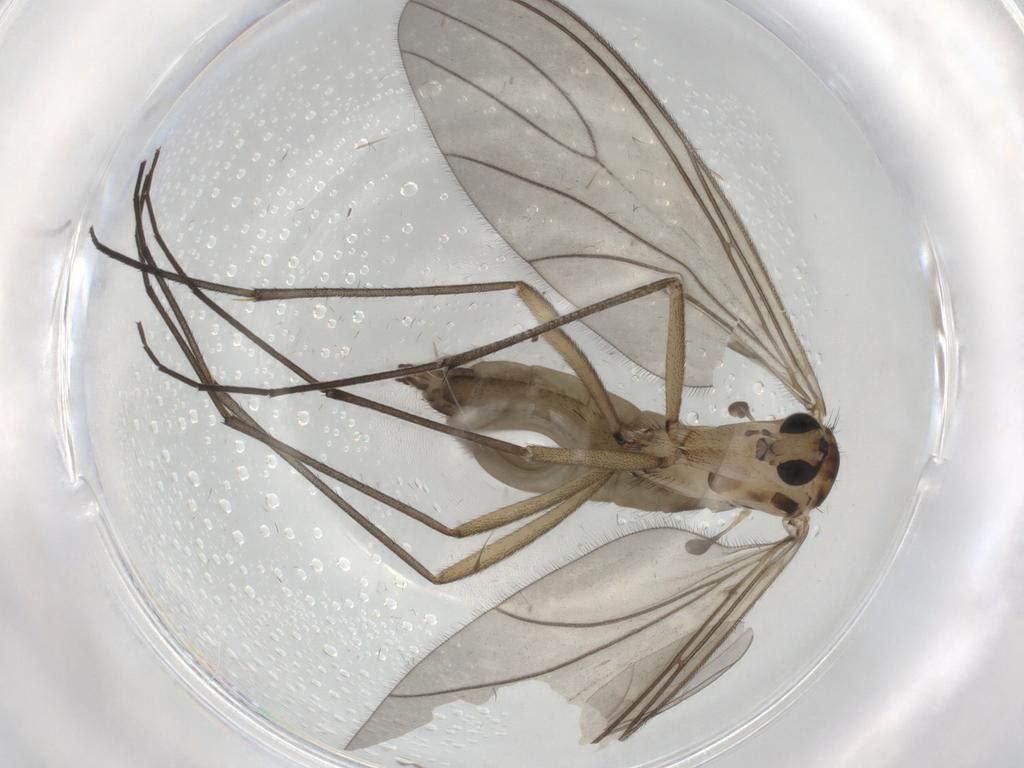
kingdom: Animalia
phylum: Arthropoda
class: Insecta
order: Diptera
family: Sciaridae
